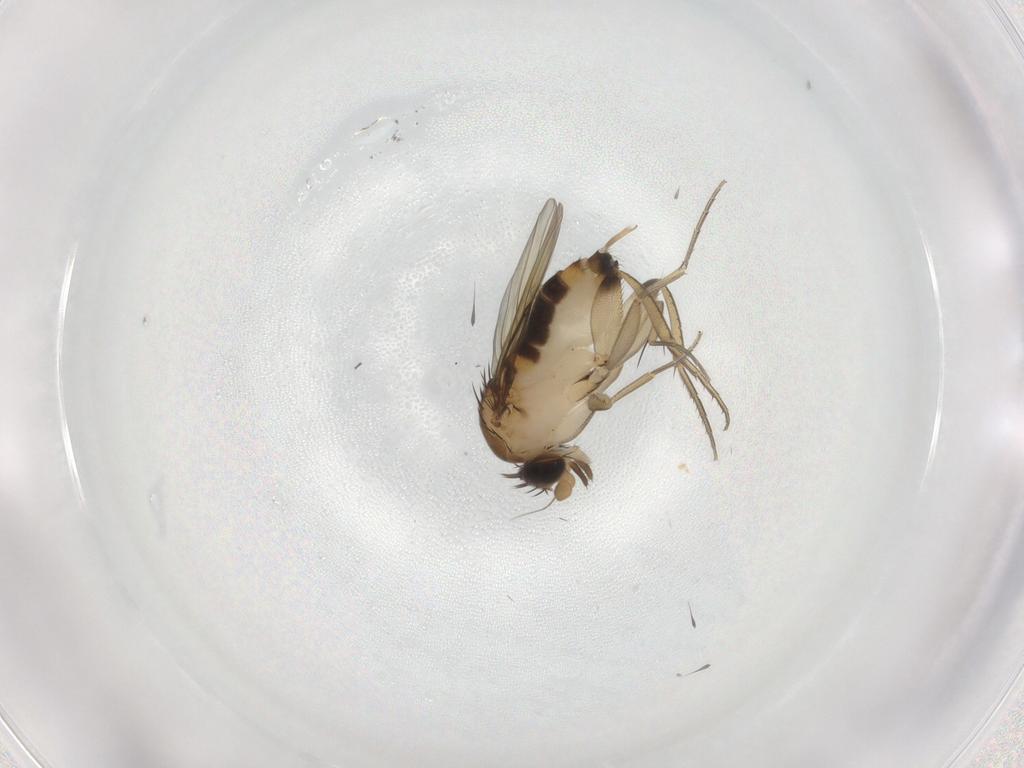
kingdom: Animalia
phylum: Arthropoda
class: Insecta
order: Diptera
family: Phoridae
